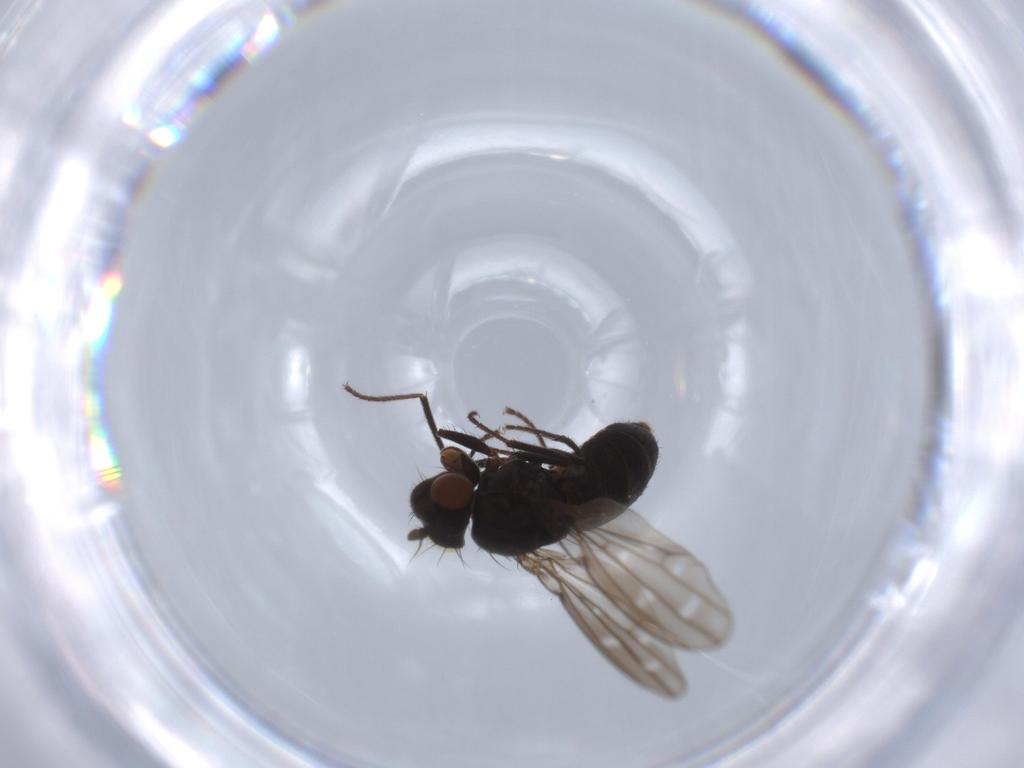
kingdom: Animalia
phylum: Arthropoda
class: Insecta
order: Diptera
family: Ephydridae
